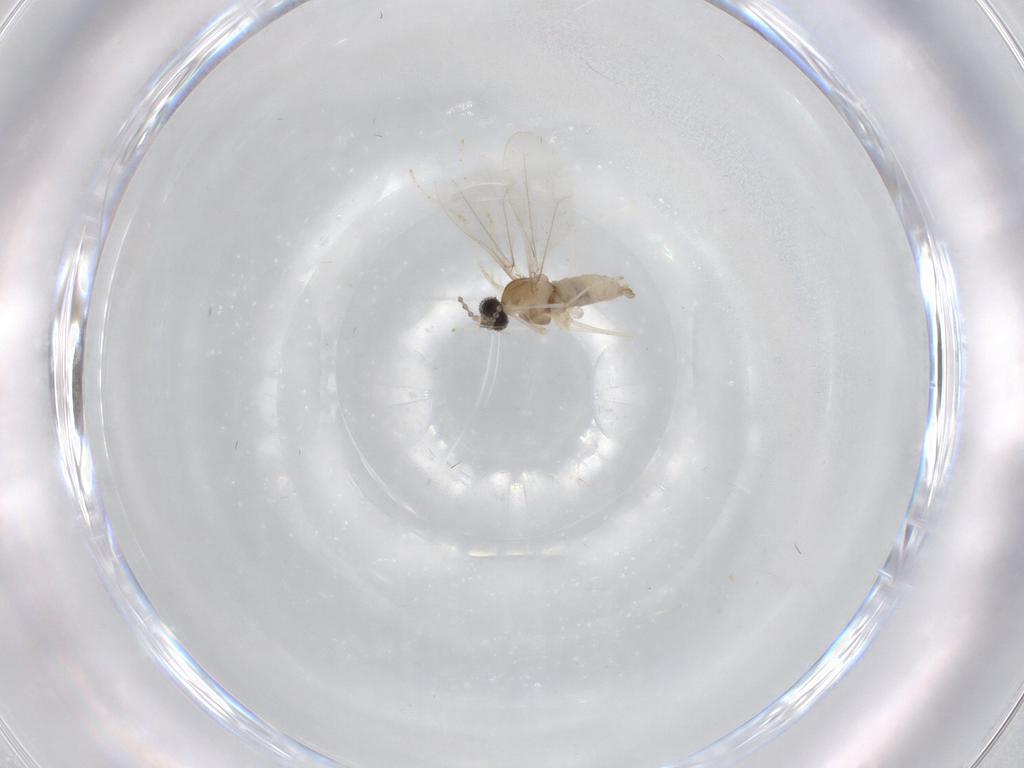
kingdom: Animalia
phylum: Arthropoda
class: Insecta
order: Diptera
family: Cecidomyiidae
